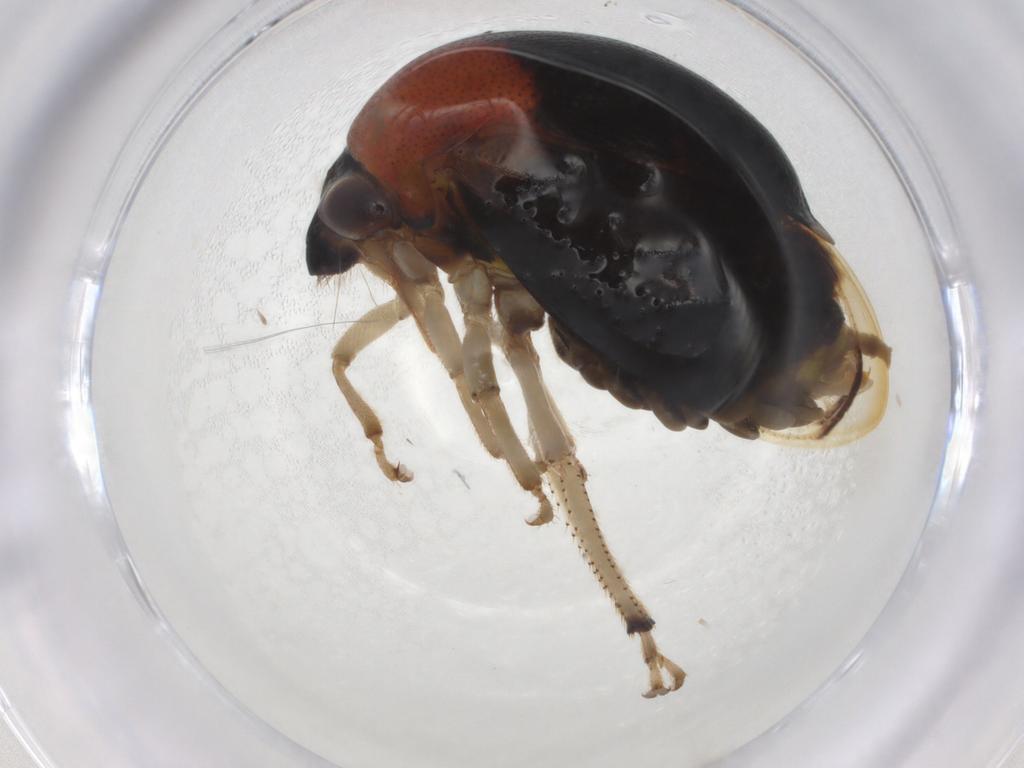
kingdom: Animalia
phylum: Arthropoda
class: Insecta
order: Hemiptera
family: Membracidae
